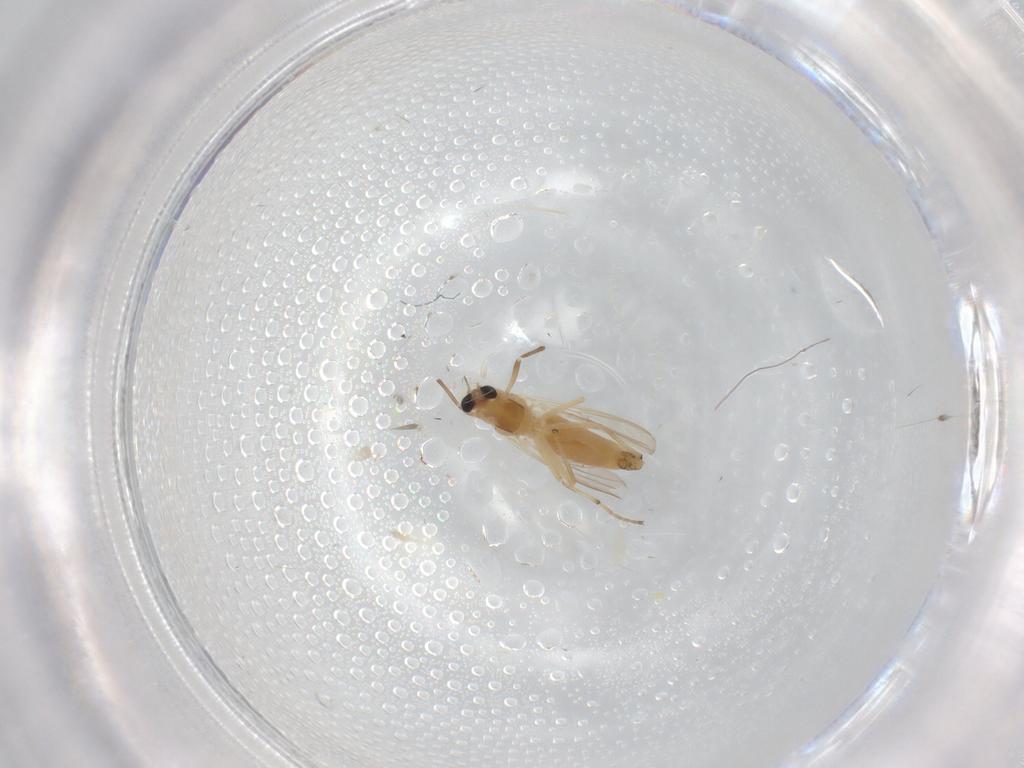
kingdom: Animalia
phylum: Arthropoda
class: Insecta
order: Diptera
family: Chironomidae
